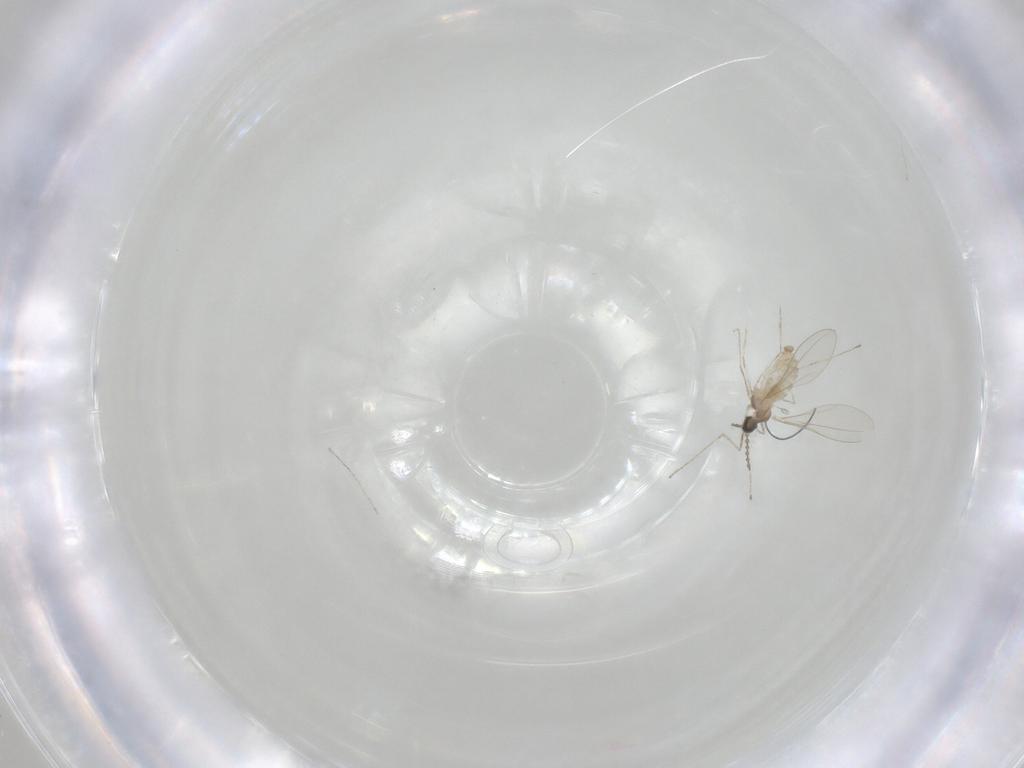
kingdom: Animalia
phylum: Arthropoda
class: Insecta
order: Diptera
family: Cecidomyiidae
